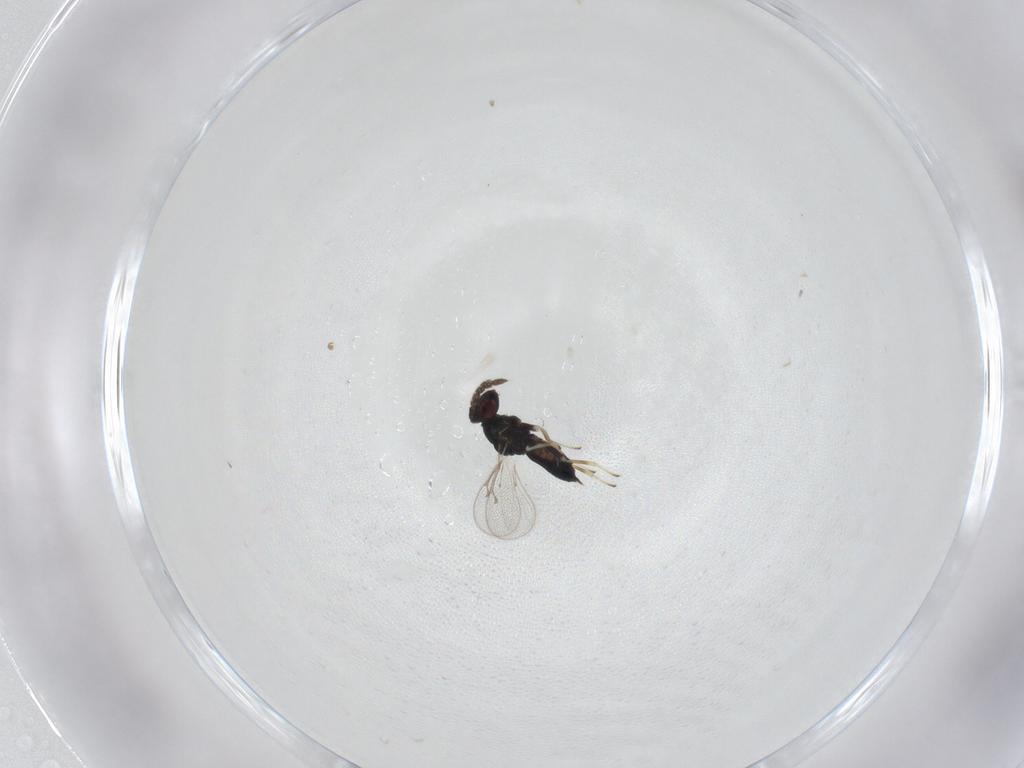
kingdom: Animalia
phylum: Arthropoda
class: Insecta
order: Hymenoptera
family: Eulophidae
